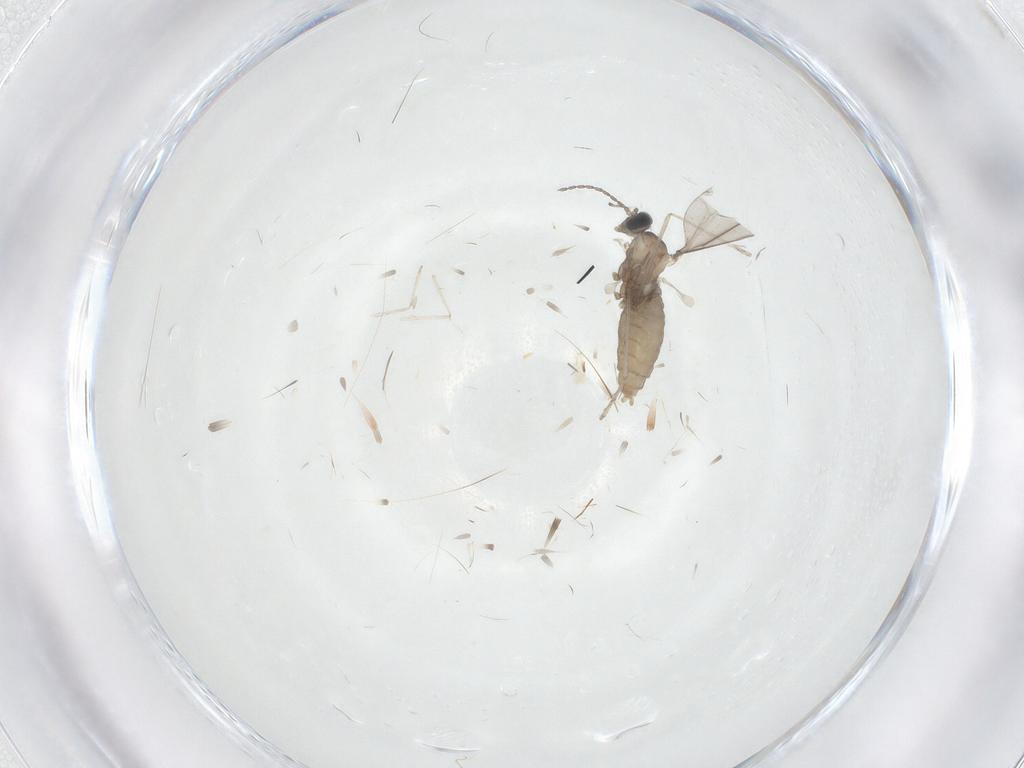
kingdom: Animalia
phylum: Arthropoda
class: Insecta
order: Diptera
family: Cecidomyiidae
